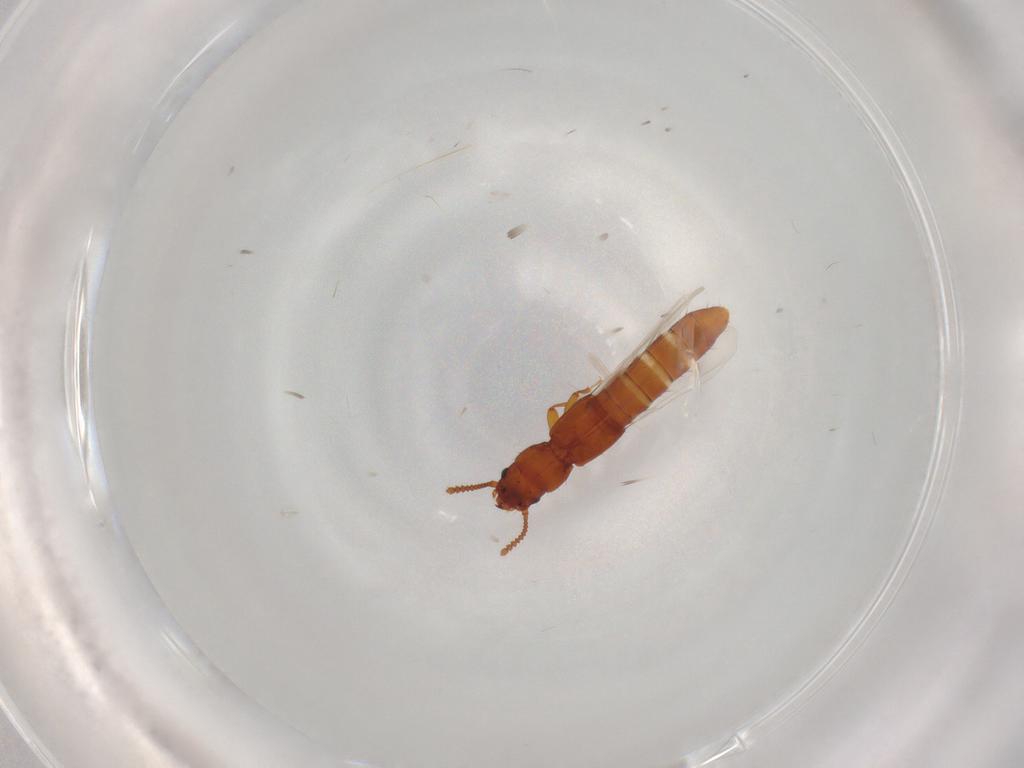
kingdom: Animalia
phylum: Arthropoda
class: Insecta
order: Coleoptera
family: Staphylinidae
